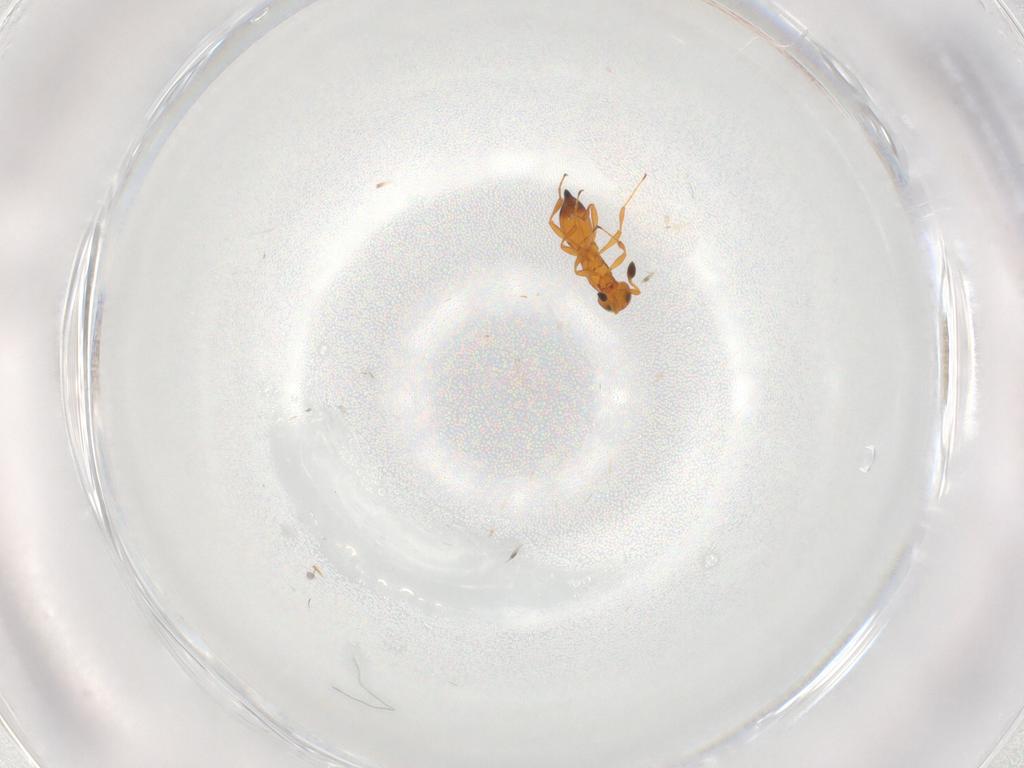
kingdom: Animalia
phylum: Arthropoda
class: Insecta
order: Hymenoptera
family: Platygastridae
